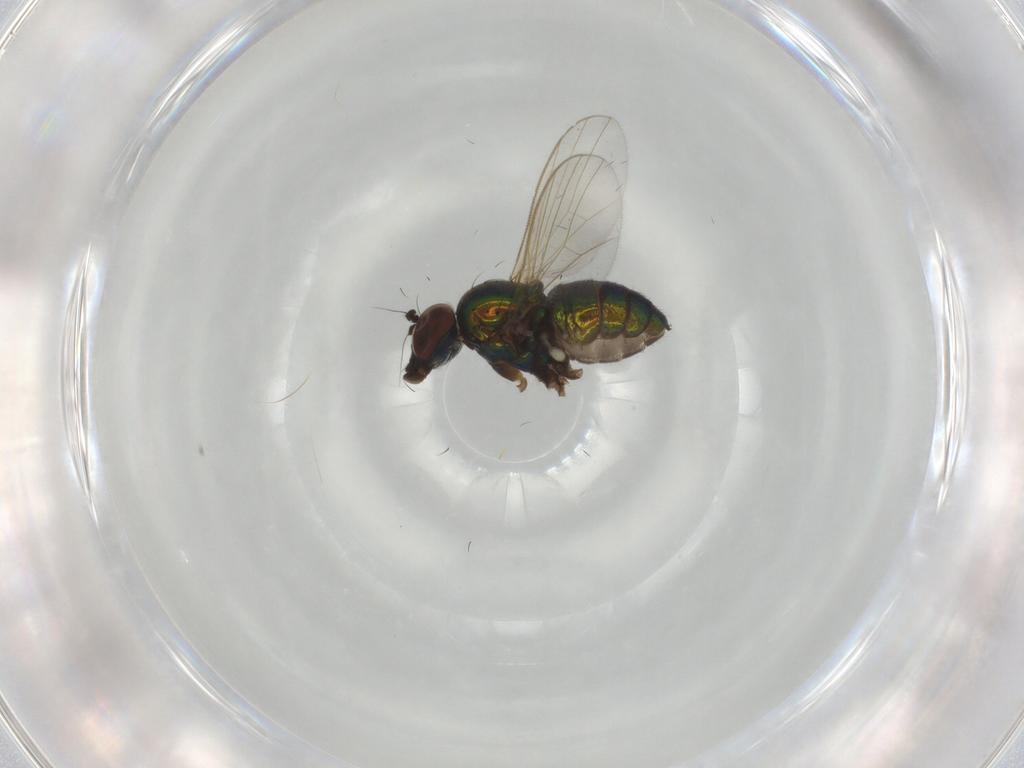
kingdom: Animalia
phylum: Arthropoda
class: Insecta
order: Diptera
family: Dolichopodidae
